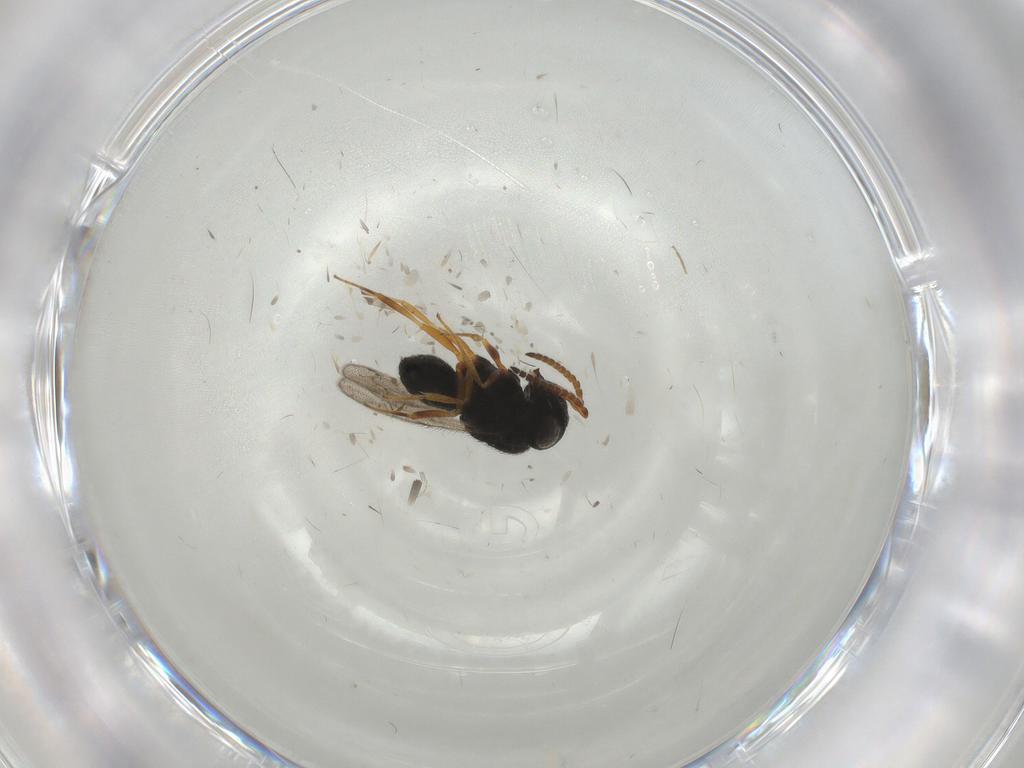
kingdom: Animalia
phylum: Arthropoda
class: Insecta
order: Hymenoptera
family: Scelionidae
